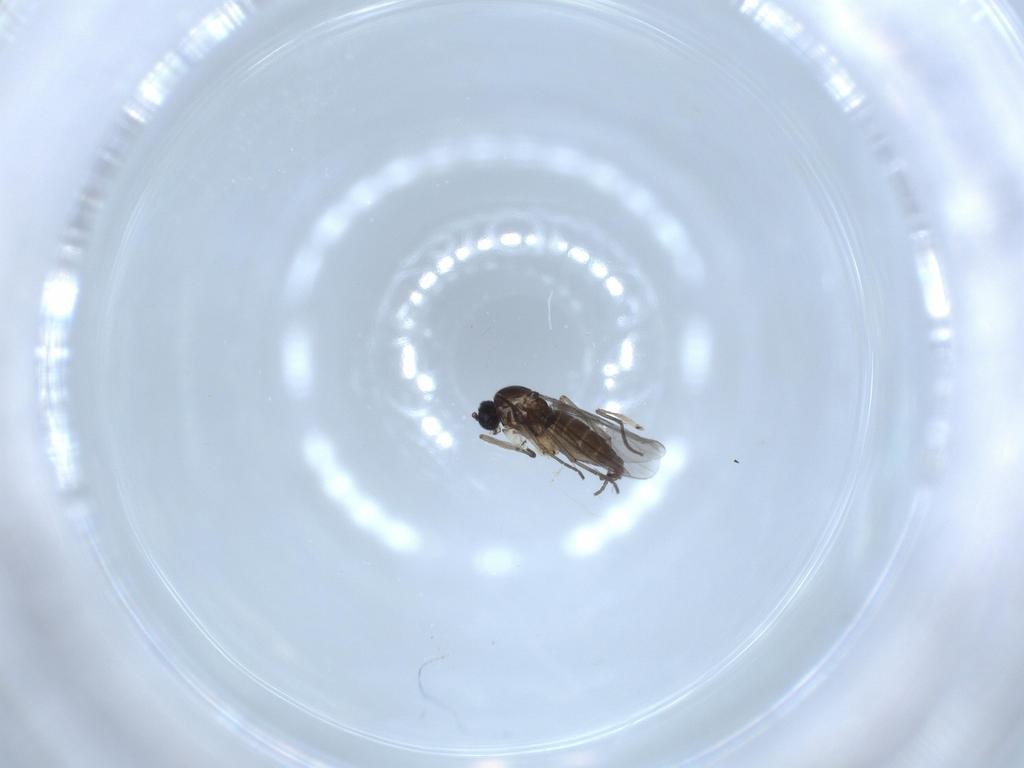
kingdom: Animalia
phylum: Arthropoda
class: Insecta
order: Diptera
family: Sciaridae
